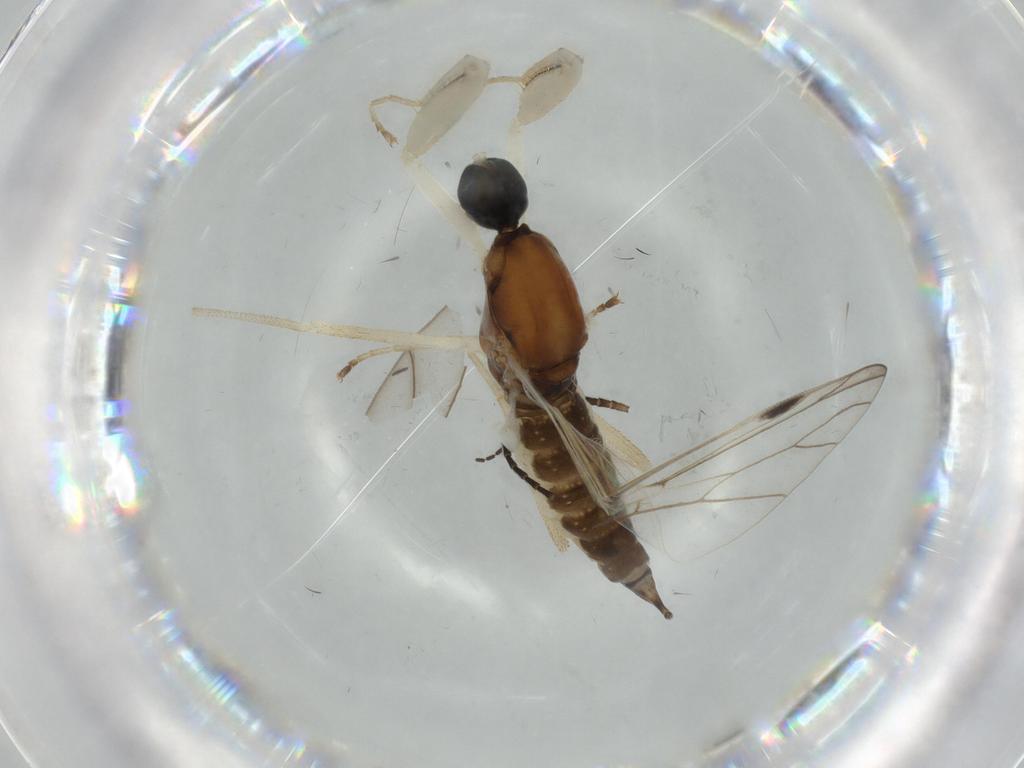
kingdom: Animalia
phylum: Arthropoda
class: Insecta
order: Diptera
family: Empididae
